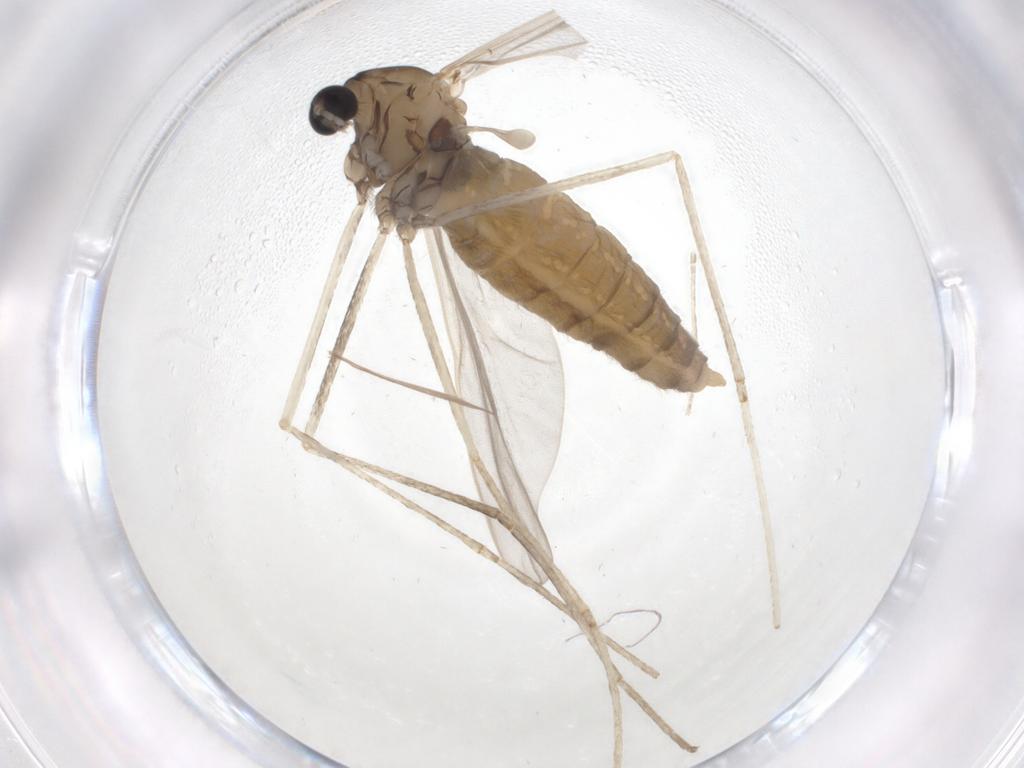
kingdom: Animalia
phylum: Arthropoda
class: Insecta
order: Diptera
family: Cecidomyiidae
